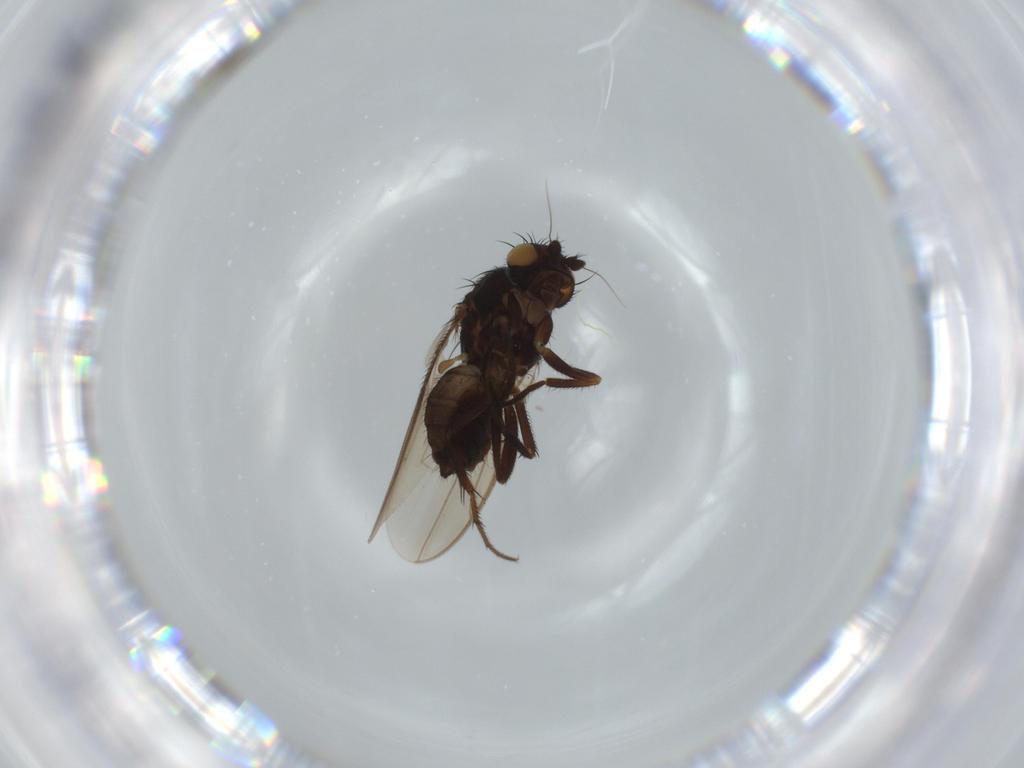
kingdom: Animalia
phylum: Arthropoda
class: Insecta
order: Diptera
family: Sphaeroceridae
